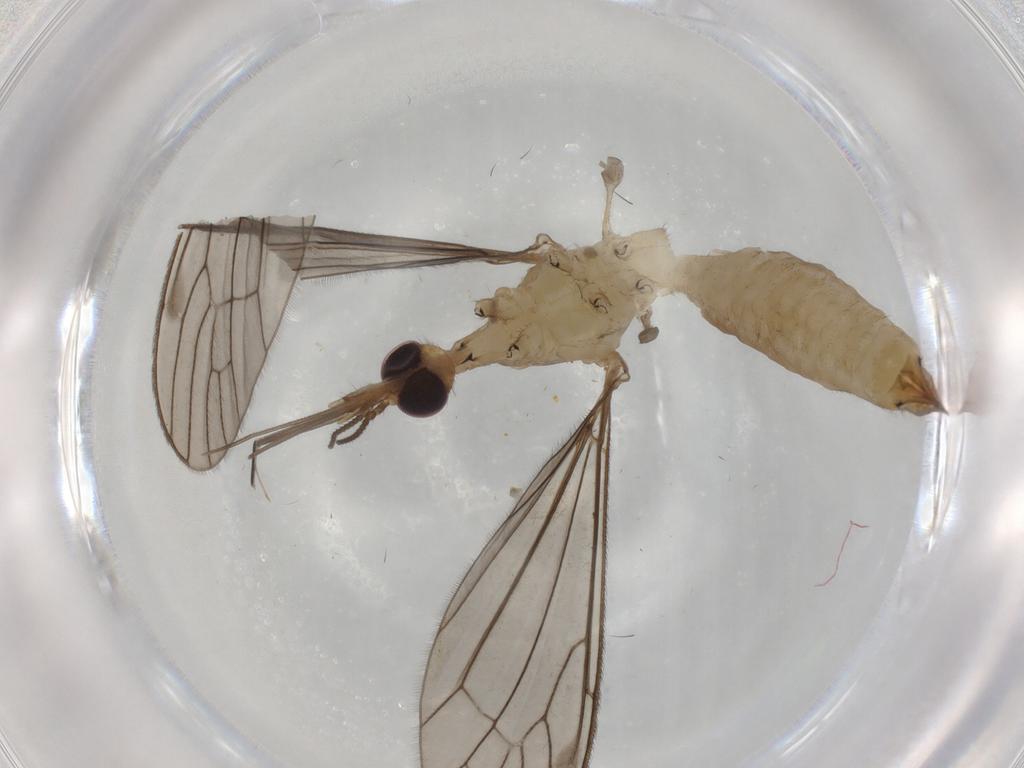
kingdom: Animalia
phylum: Arthropoda
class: Insecta
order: Diptera
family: Limoniidae
